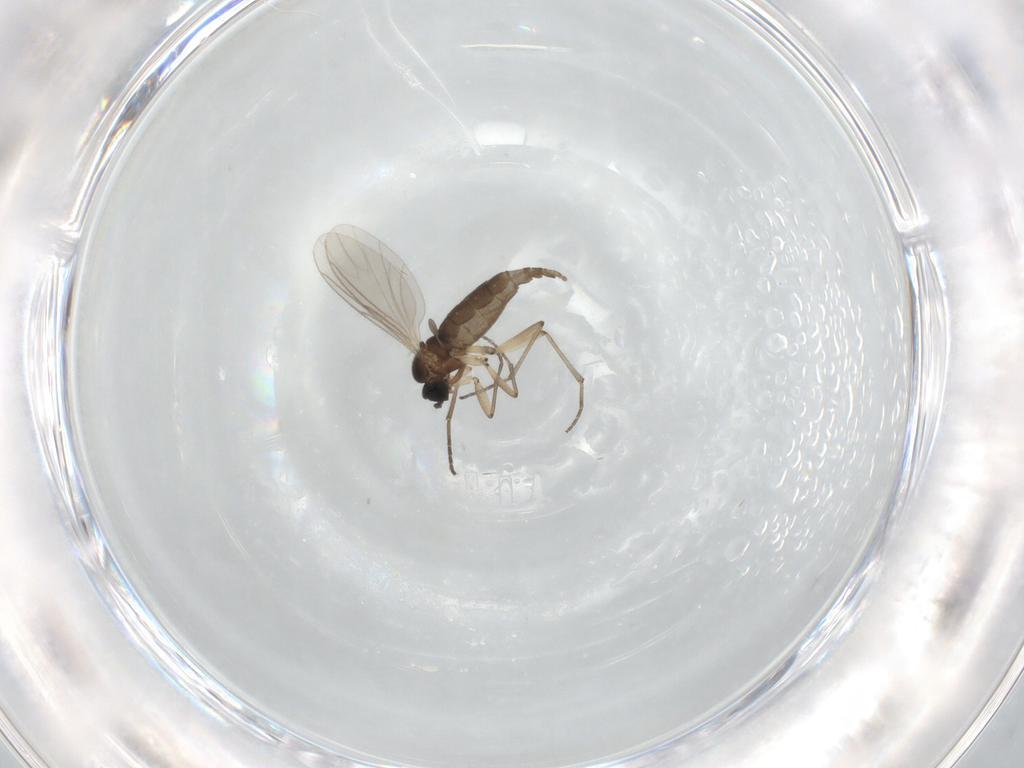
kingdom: Animalia
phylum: Arthropoda
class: Insecta
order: Diptera
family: Sciaridae
